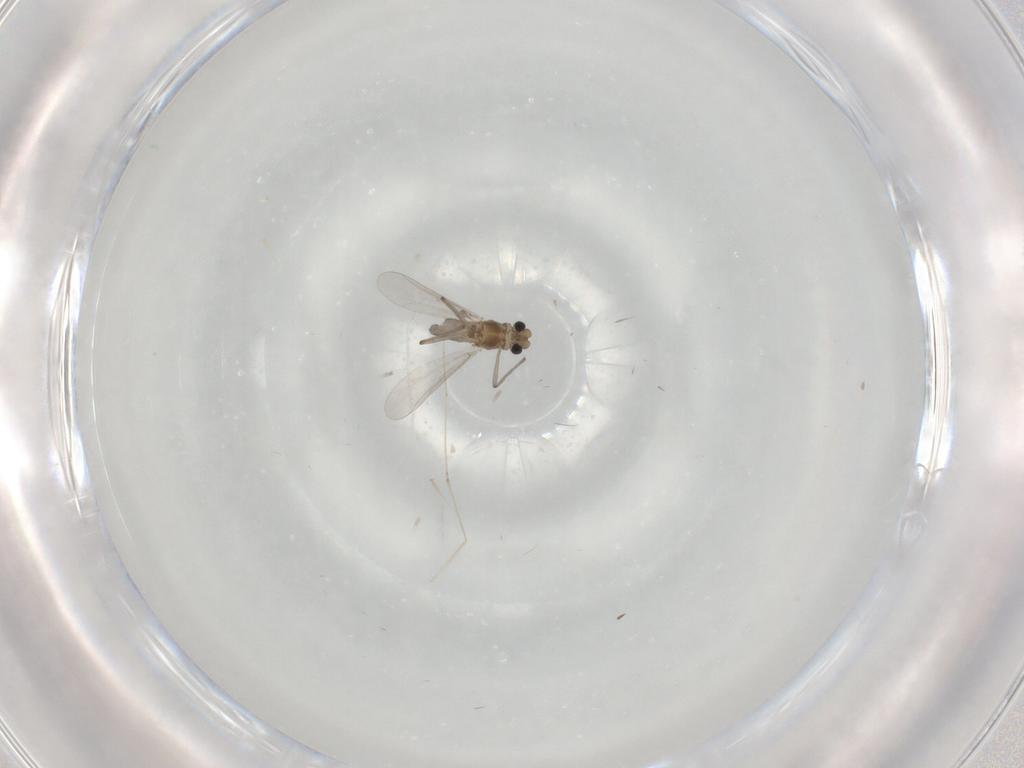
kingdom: Animalia
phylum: Arthropoda
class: Insecta
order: Diptera
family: Chironomidae
